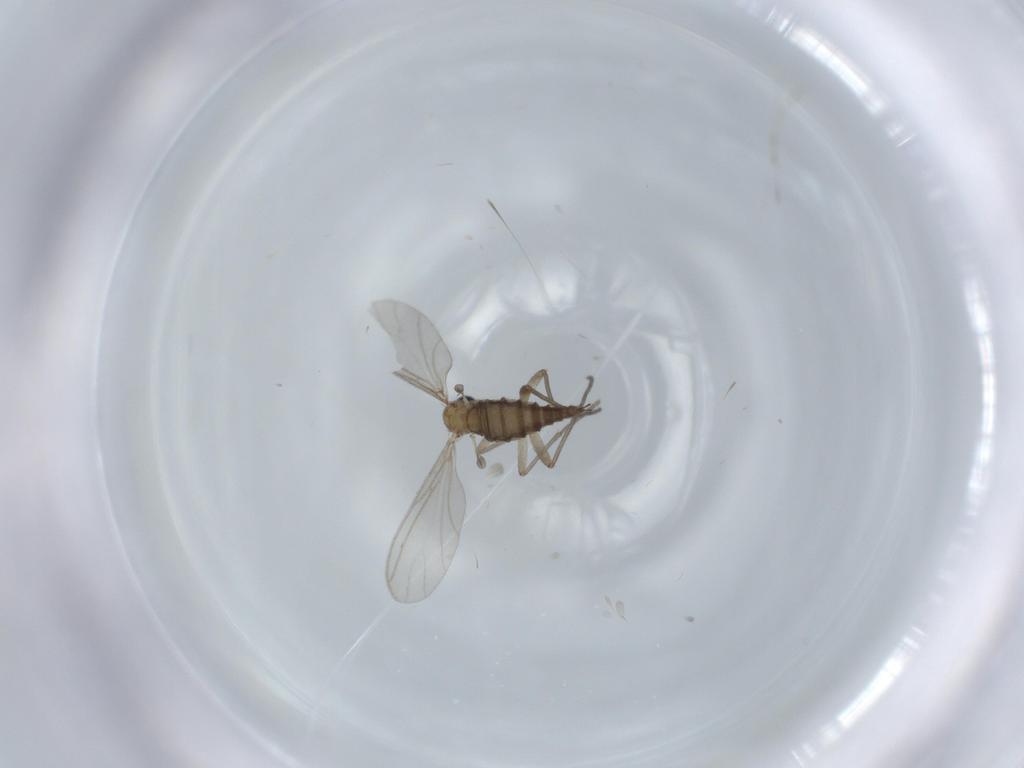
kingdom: Animalia
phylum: Arthropoda
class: Insecta
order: Diptera
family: Sciaridae
